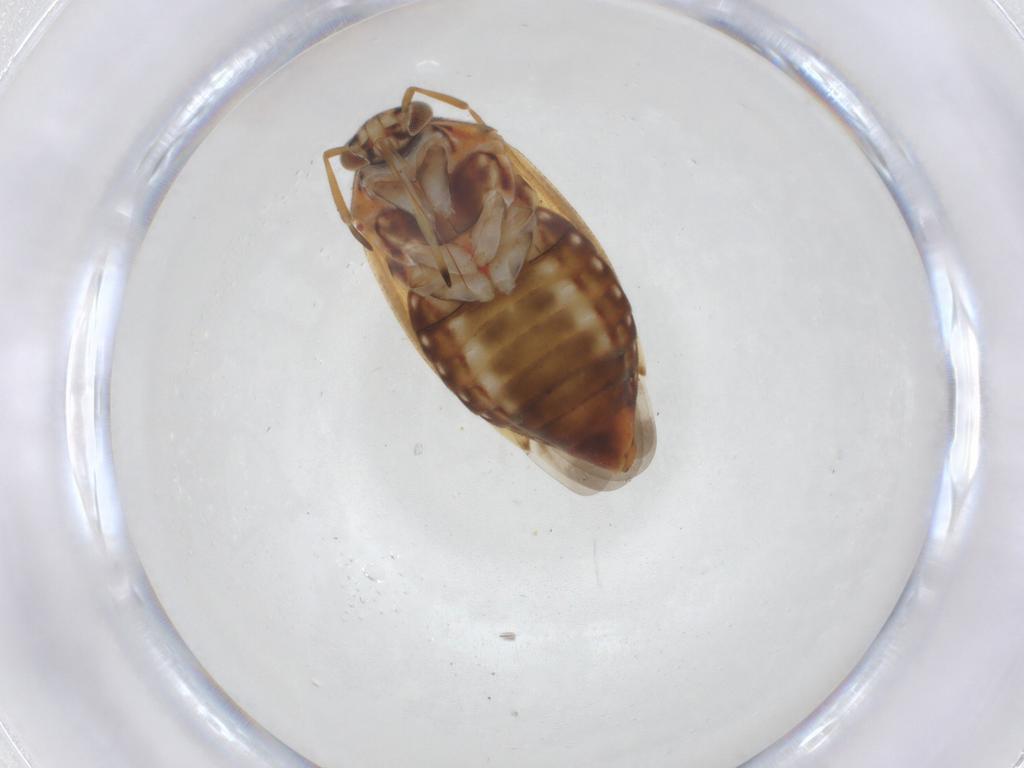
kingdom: Animalia
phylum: Arthropoda
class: Insecta
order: Hemiptera
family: Miridae
